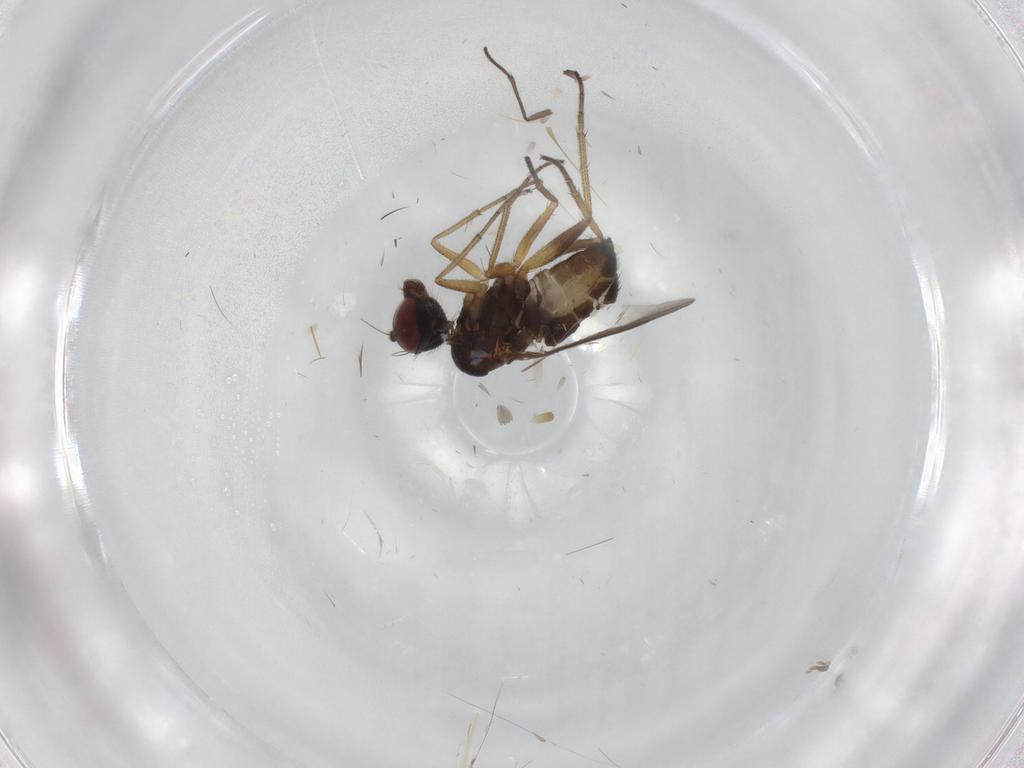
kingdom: Animalia
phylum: Arthropoda
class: Insecta
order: Diptera
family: Dolichopodidae
